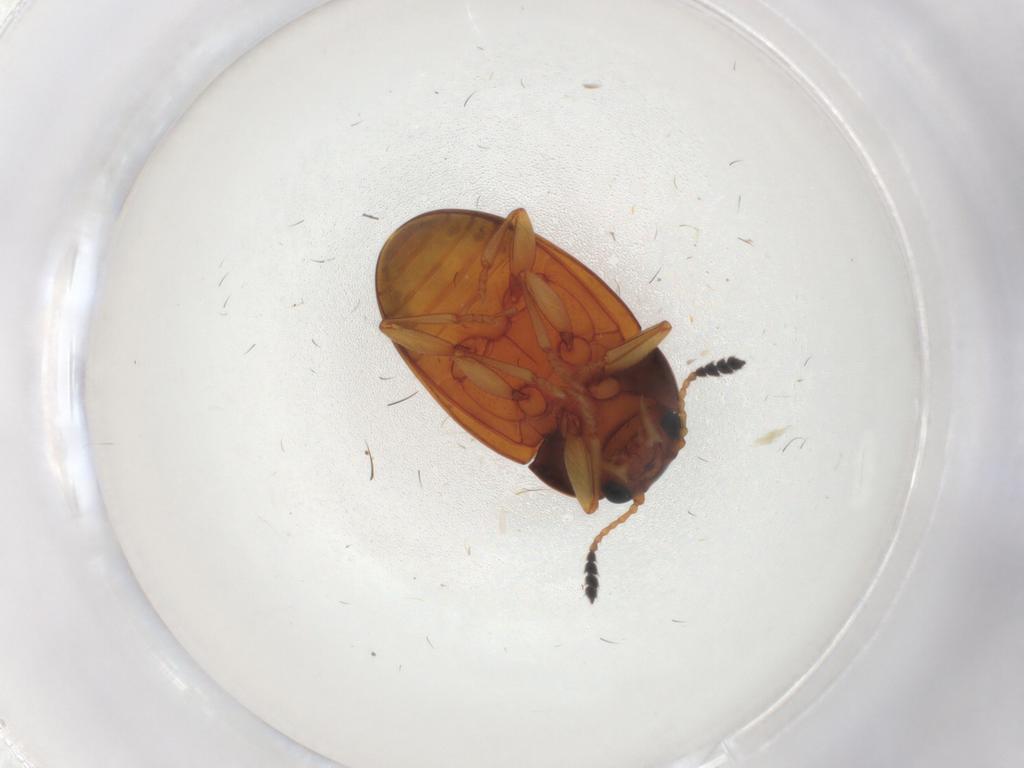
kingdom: Animalia
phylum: Arthropoda
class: Insecta
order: Coleoptera
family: Erotylidae
